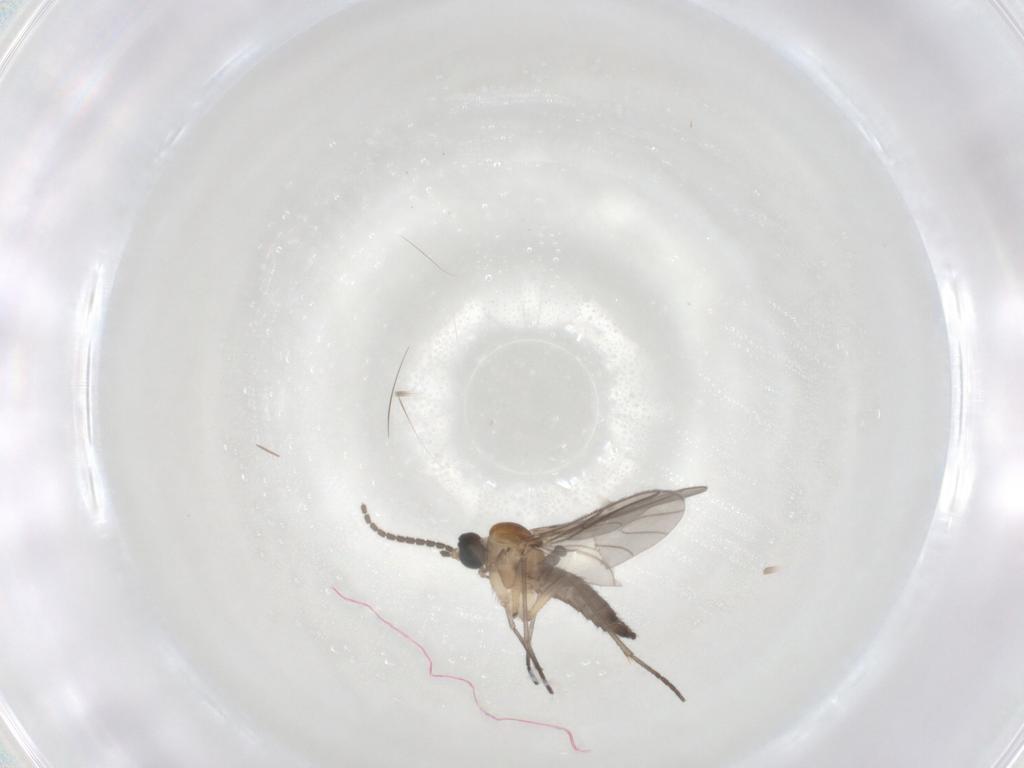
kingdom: Animalia
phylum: Arthropoda
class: Insecta
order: Diptera
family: Sciaridae
